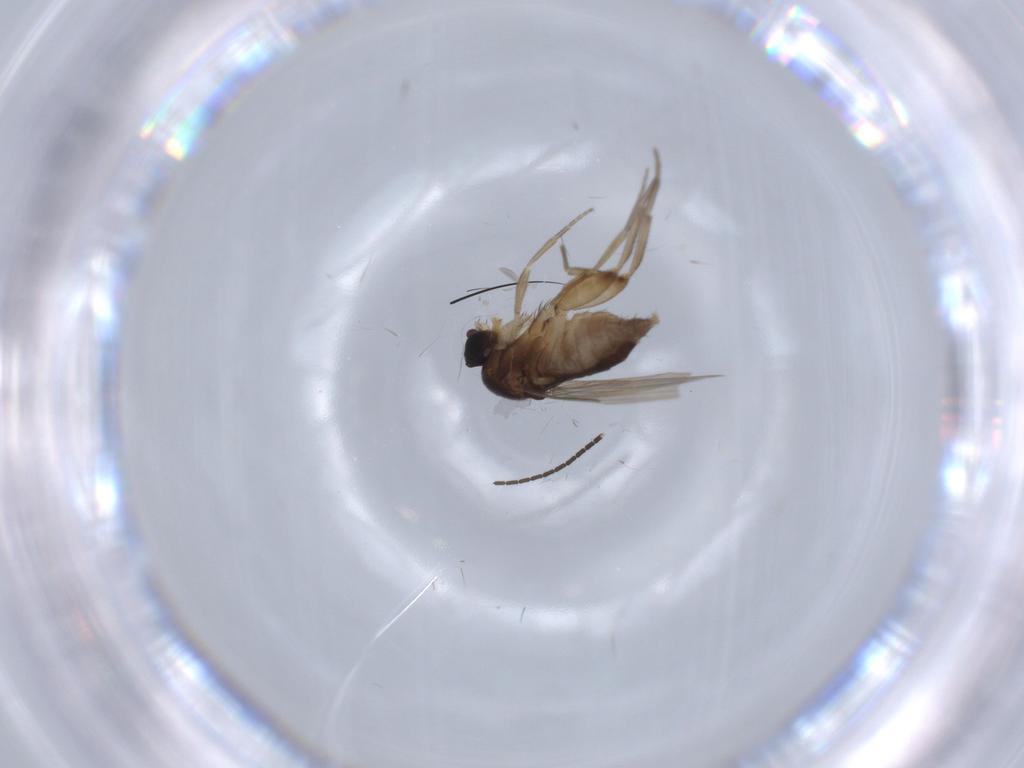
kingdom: Animalia
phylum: Arthropoda
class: Insecta
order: Diptera
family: Phoridae
